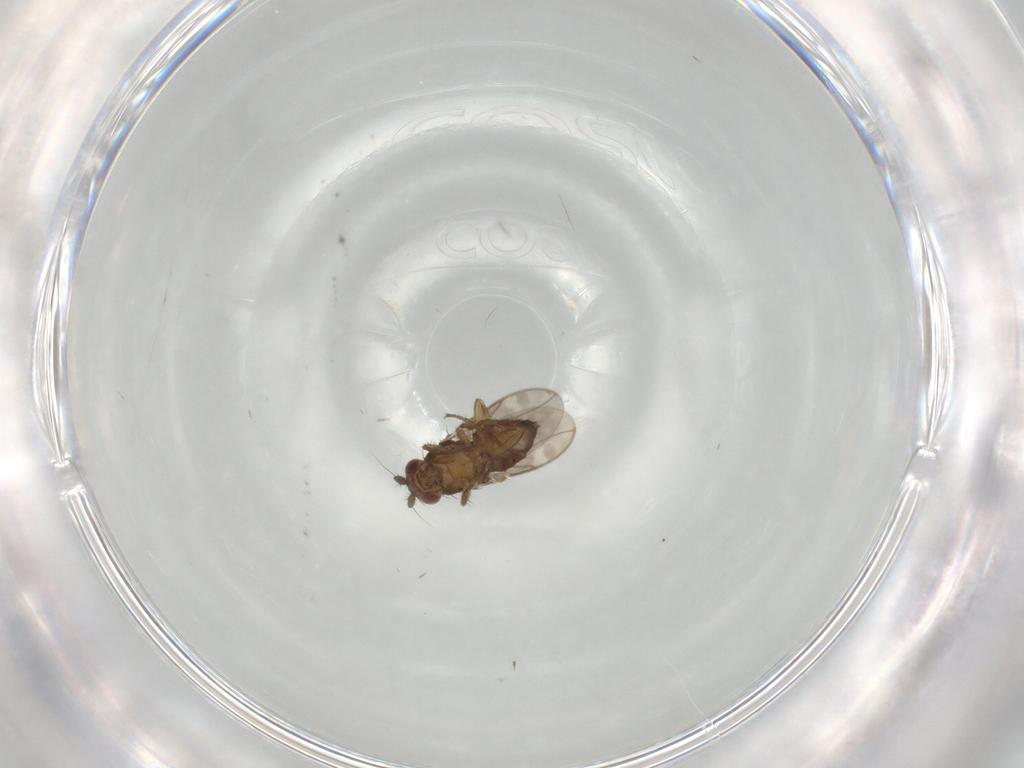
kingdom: Animalia
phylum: Arthropoda
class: Insecta
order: Diptera
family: Sphaeroceridae
